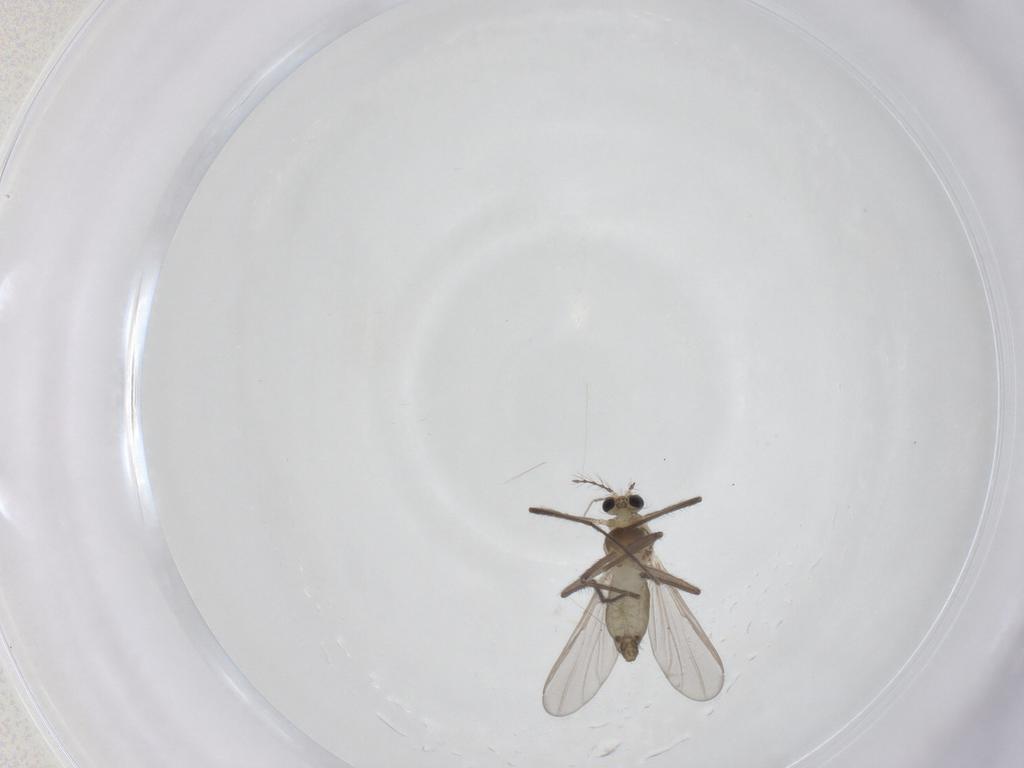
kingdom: Animalia
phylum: Arthropoda
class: Insecta
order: Diptera
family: Chironomidae
